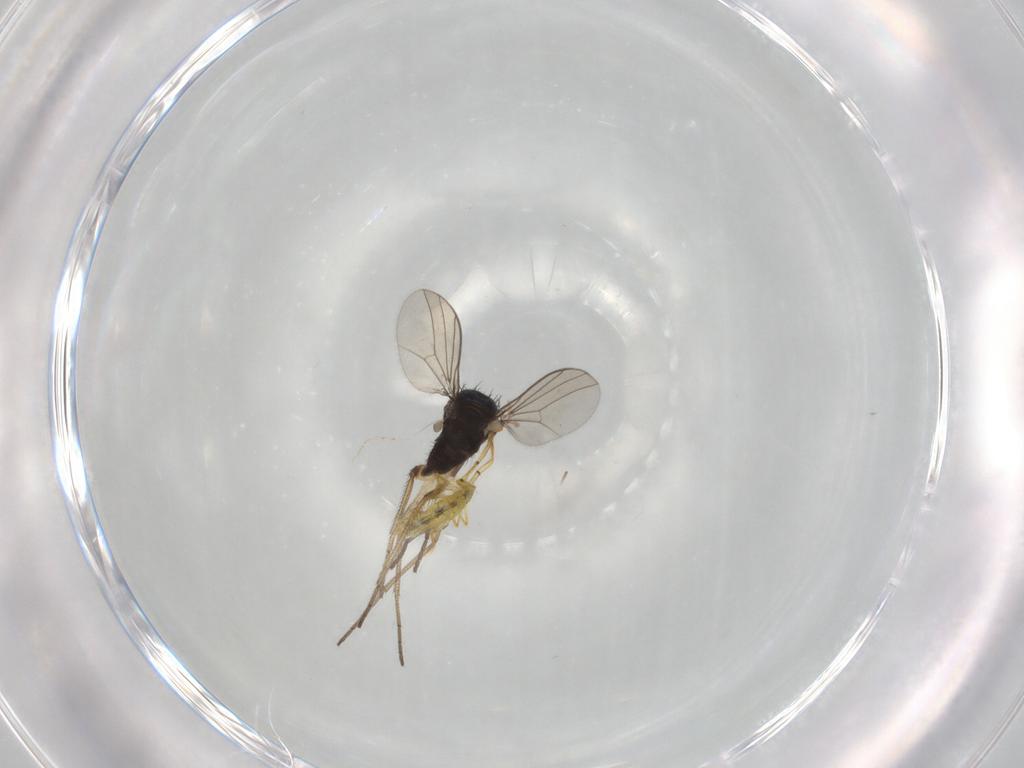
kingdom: Animalia
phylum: Arthropoda
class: Insecta
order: Diptera
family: Dolichopodidae
